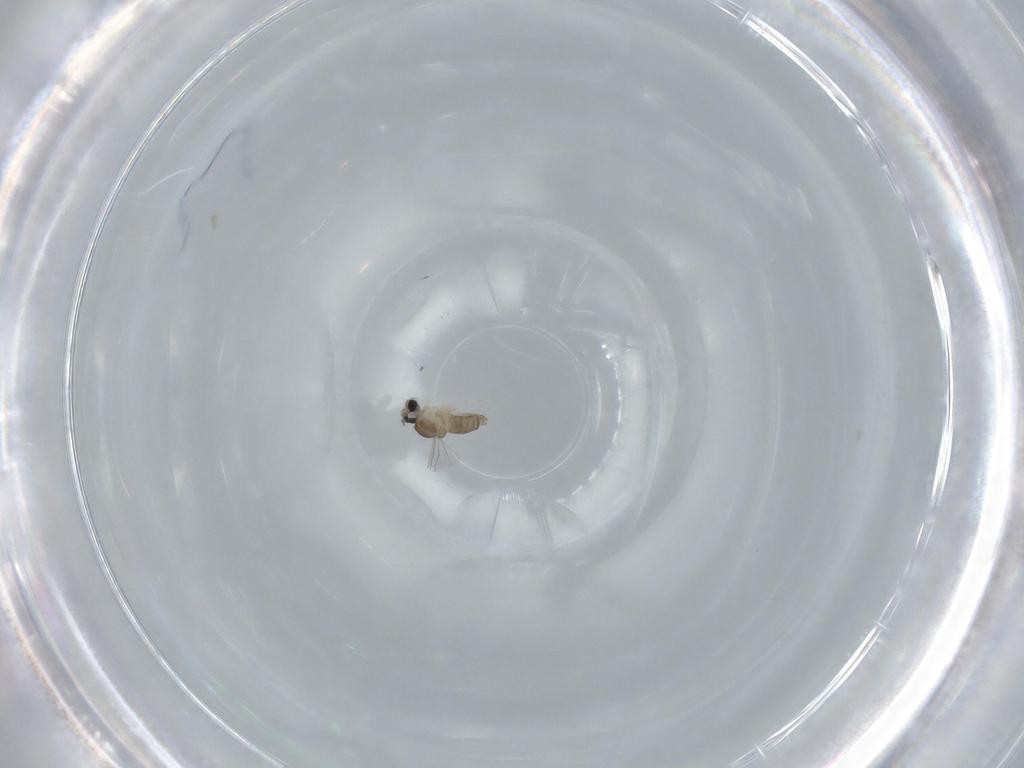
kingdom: Animalia
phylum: Arthropoda
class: Insecta
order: Diptera
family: Cecidomyiidae
